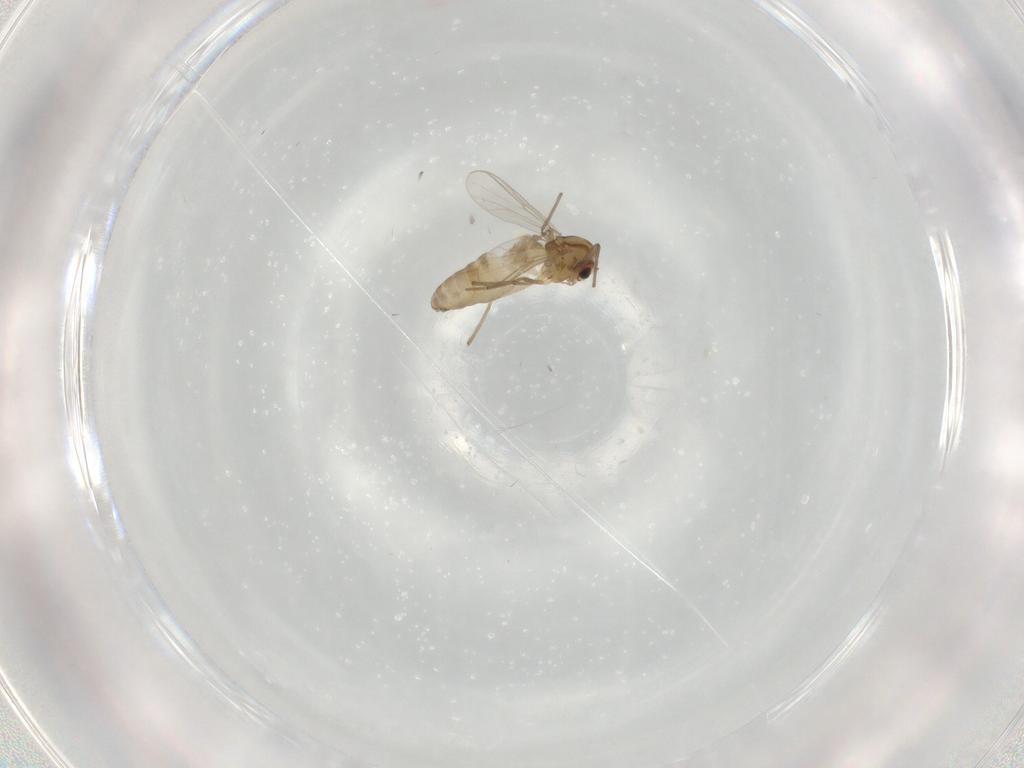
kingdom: Animalia
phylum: Arthropoda
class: Insecta
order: Diptera
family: Chironomidae
